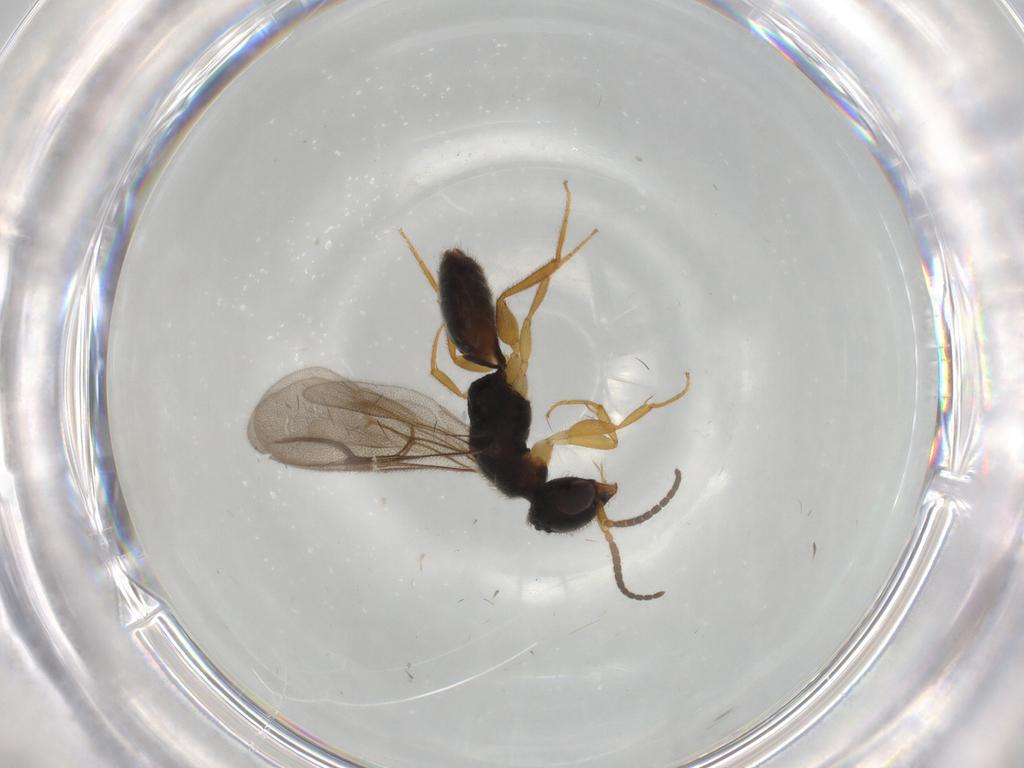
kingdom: Animalia
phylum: Arthropoda
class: Insecta
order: Hymenoptera
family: Bethylidae
